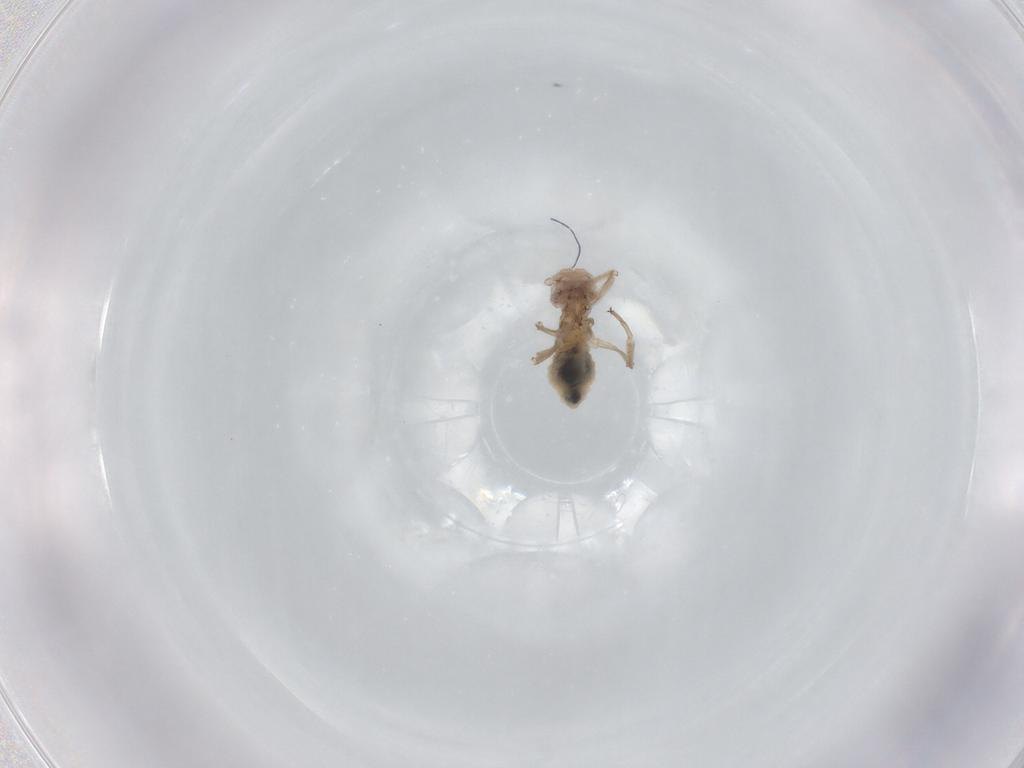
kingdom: Animalia
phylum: Arthropoda
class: Insecta
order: Psocodea
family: Stenopsocidae
